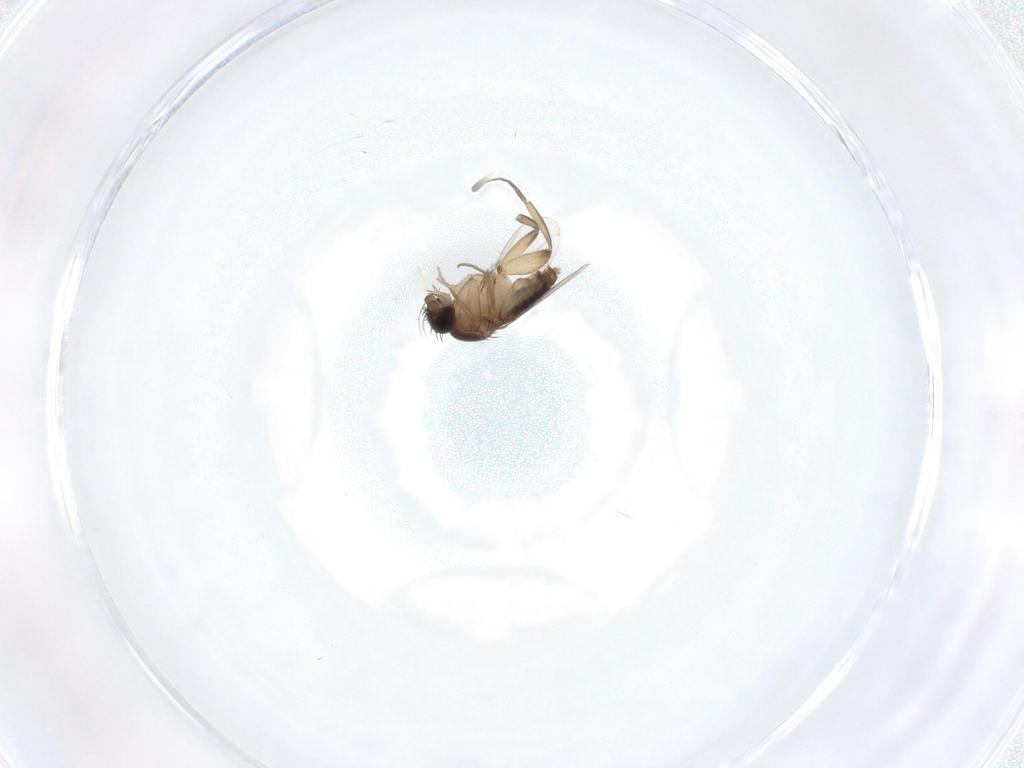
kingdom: Animalia
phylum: Arthropoda
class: Insecta
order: Diptera
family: Phoridae
